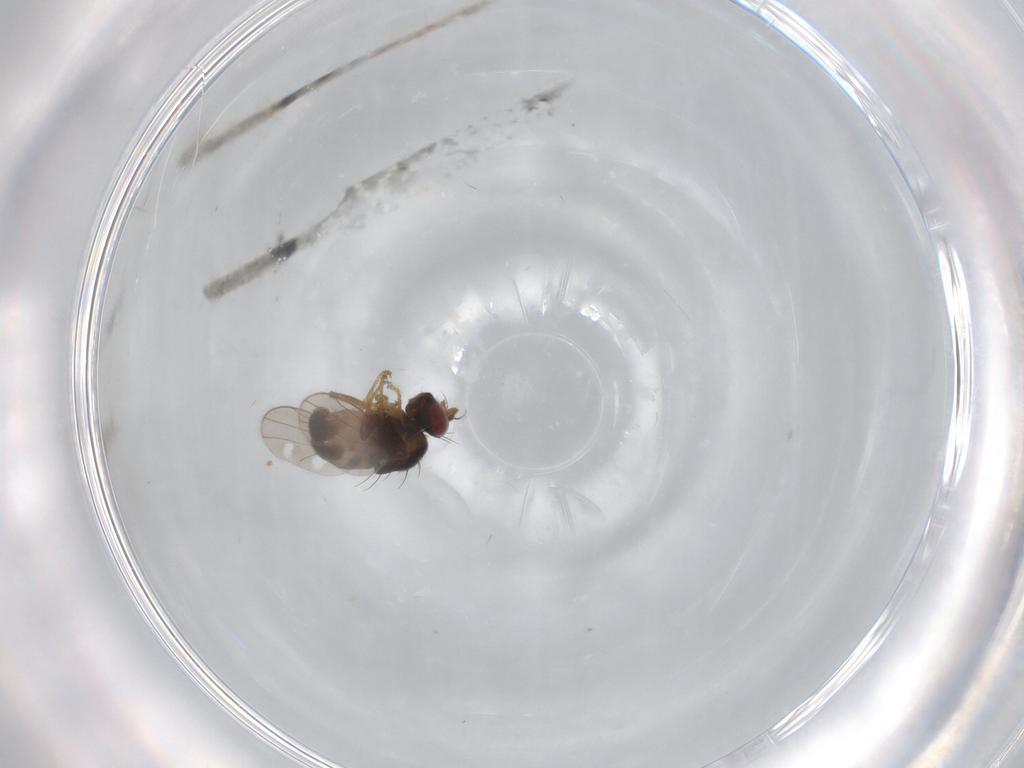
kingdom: Animalia
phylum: Arthropoda
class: Insecta
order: Diptera
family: Ephydridae
